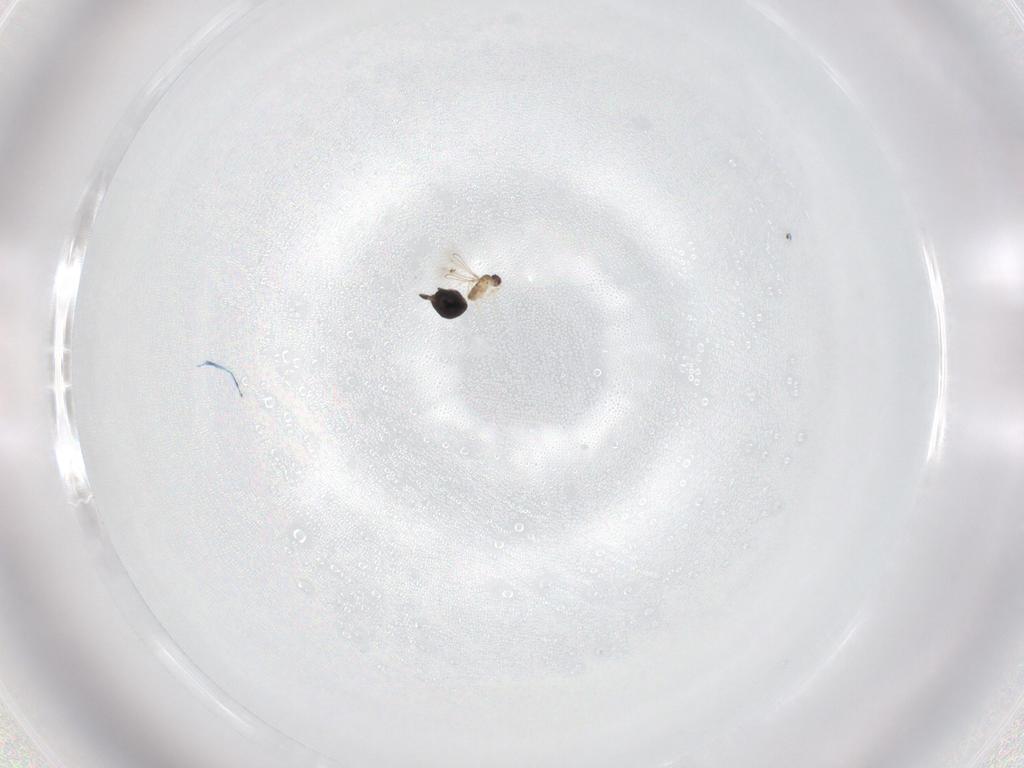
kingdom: Animalia
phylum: Arthropoda
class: Insecta
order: Hymenoptera
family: Encyrtidae
